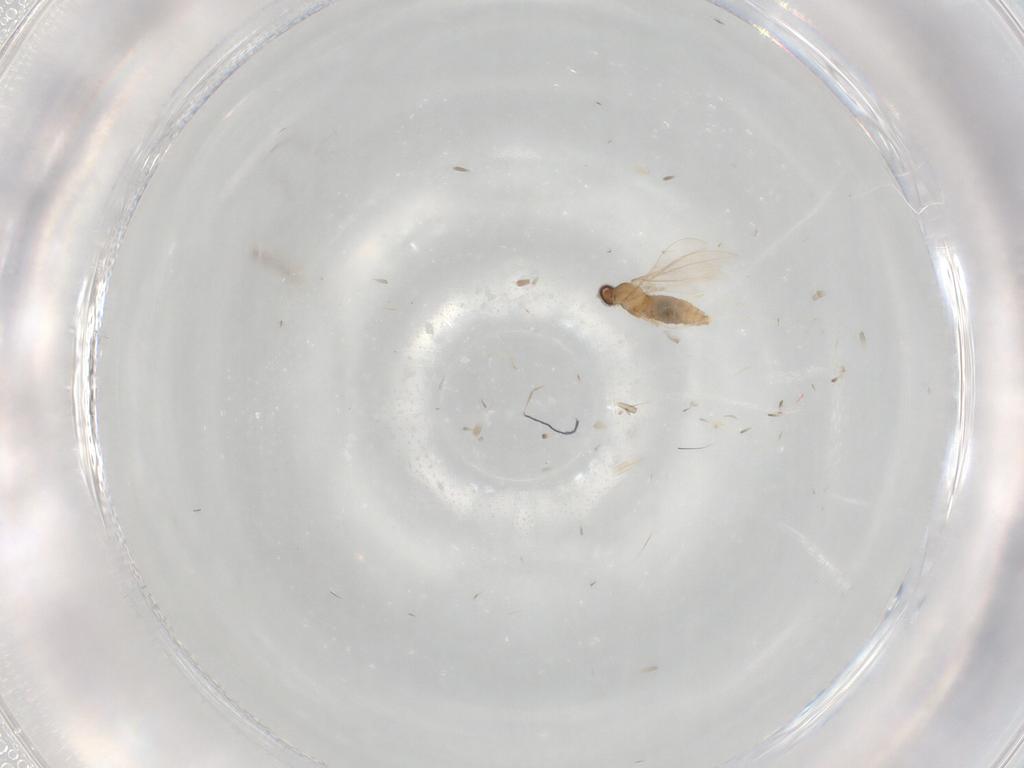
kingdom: Animalia
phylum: Arthropoda
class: Insecta
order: Diptera
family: Cecidomyiidae
